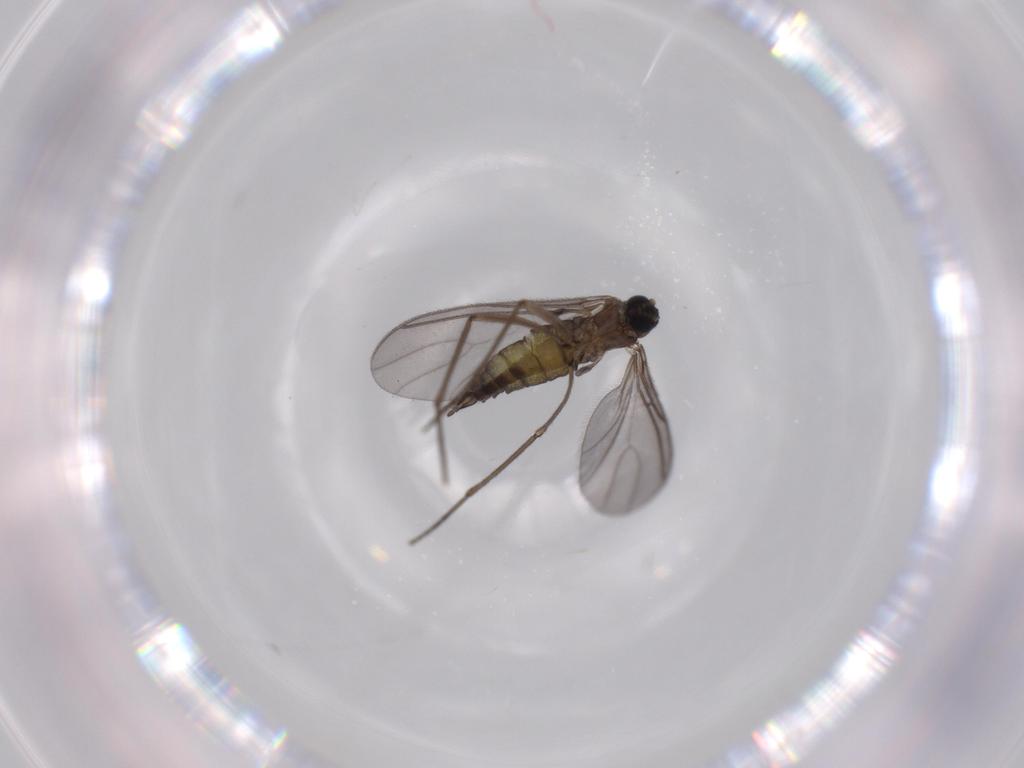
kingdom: Animalia
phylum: Arthropoda
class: Insecta
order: Diptera
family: Sciaridae
